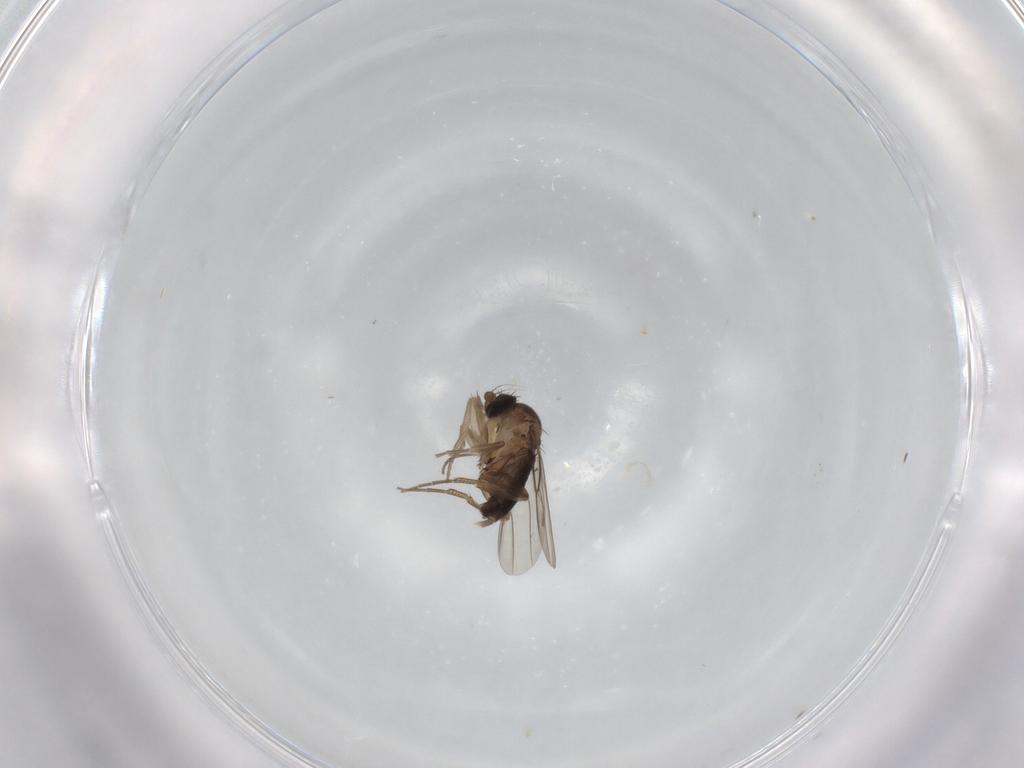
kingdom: Animalia
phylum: Arthropoda
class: Insecta
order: Diptera
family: Phoridae
